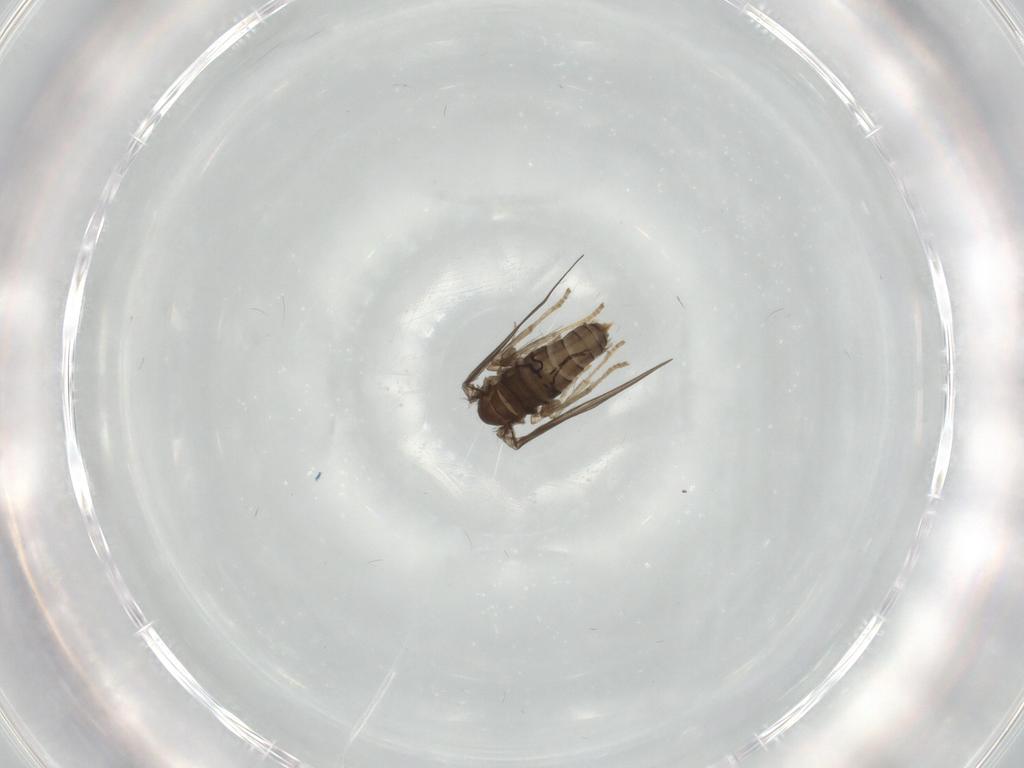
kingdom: Animalia
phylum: Arthropoda
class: Insecta
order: Diptera
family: Psychodidae
